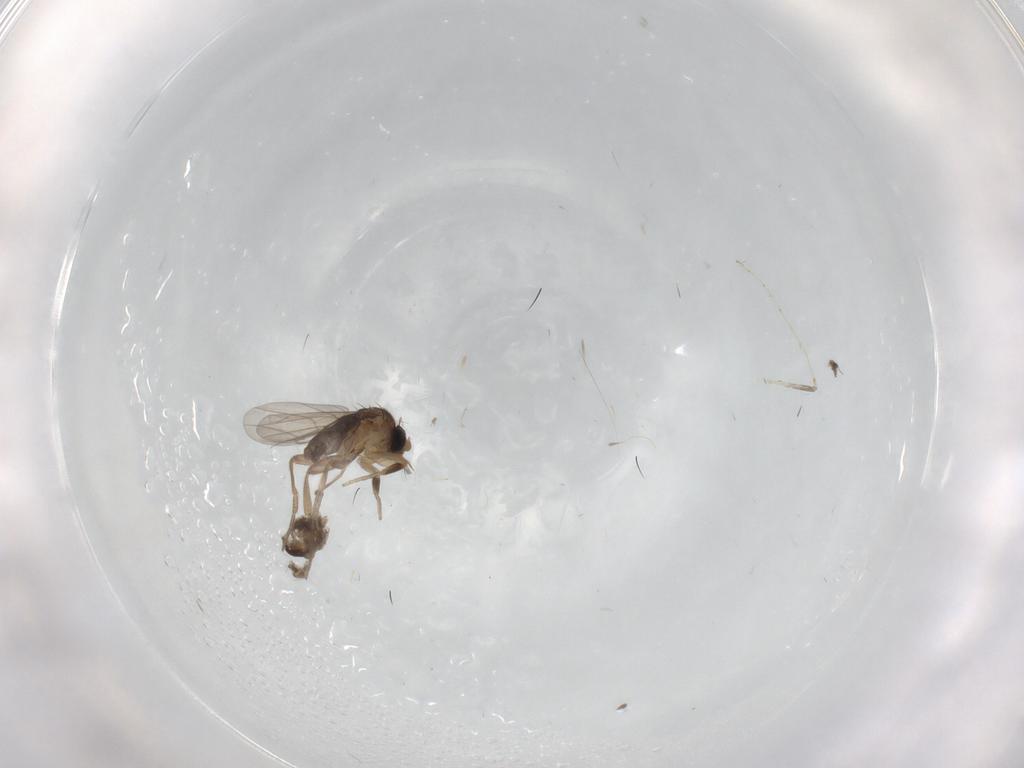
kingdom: Animalia
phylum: Arthropoda
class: Insecta
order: Diptera
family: Phoridae
